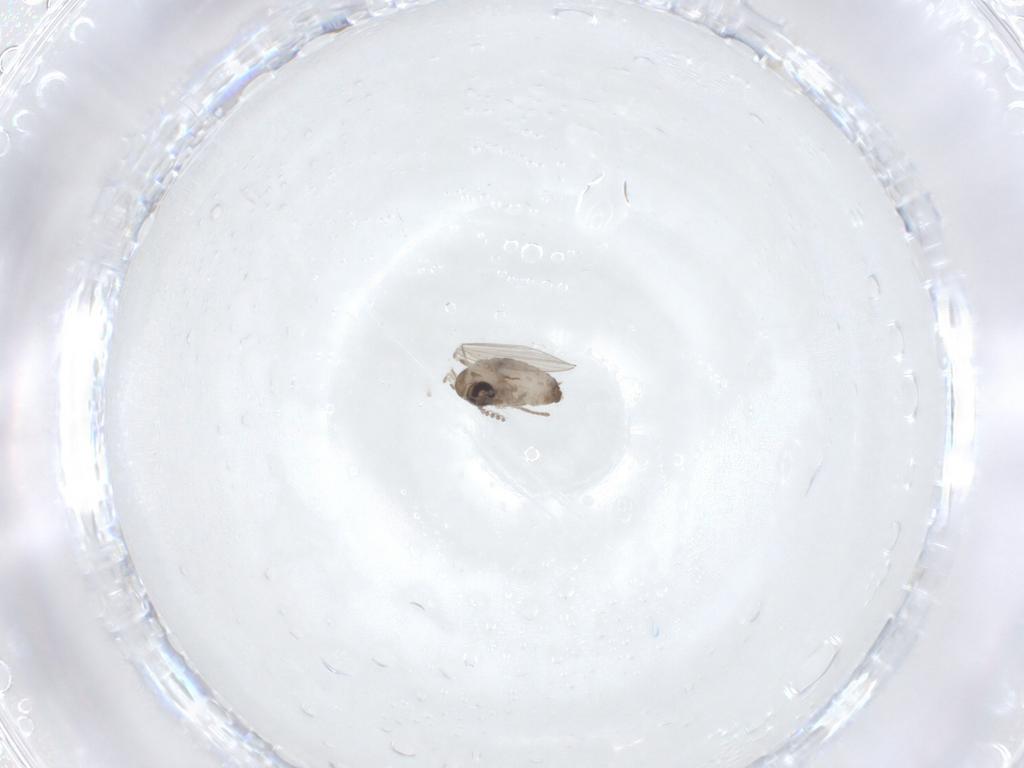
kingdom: Animalia
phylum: Arthropoda
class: Insecta
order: Diptera
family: Psychodidae
